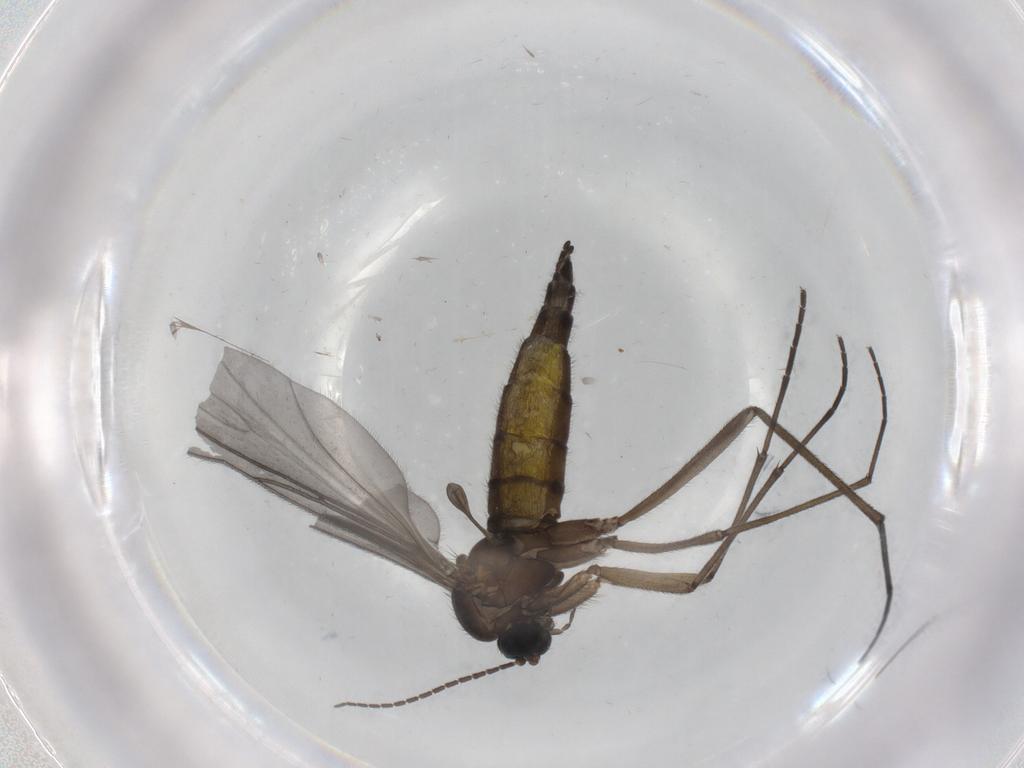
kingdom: Animalia
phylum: Arthropoda
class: Insecta
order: Diptera
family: Sciaridae
